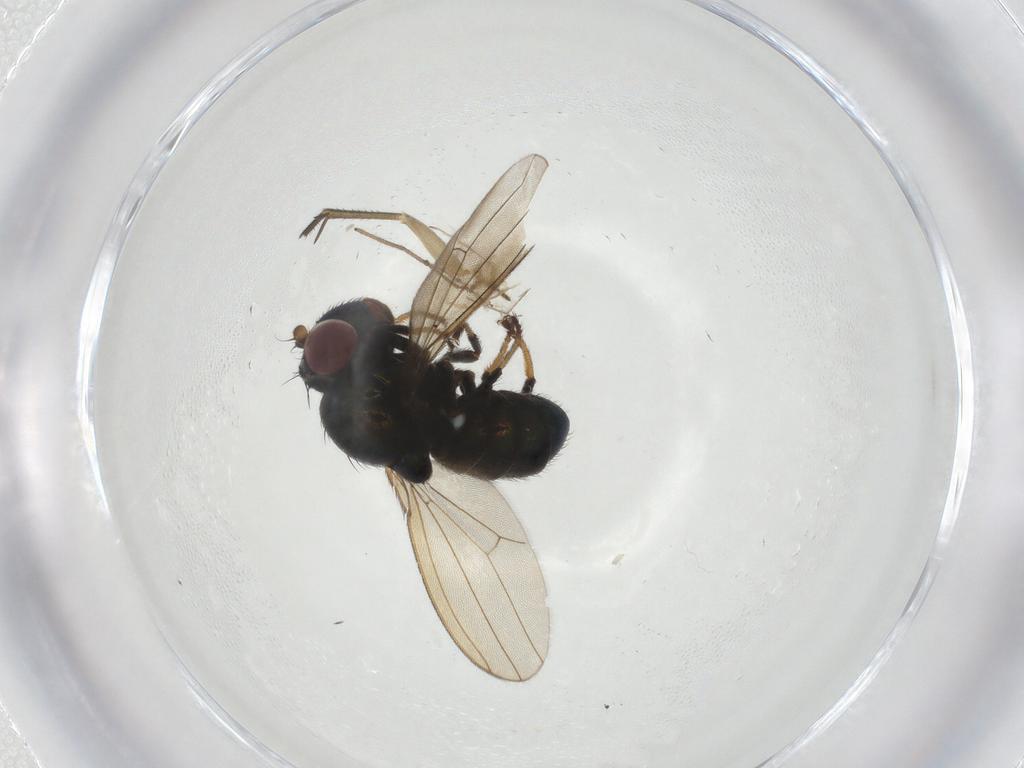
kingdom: Animalia
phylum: Arthropoda
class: Insecta
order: Diptera
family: Ephydridae
